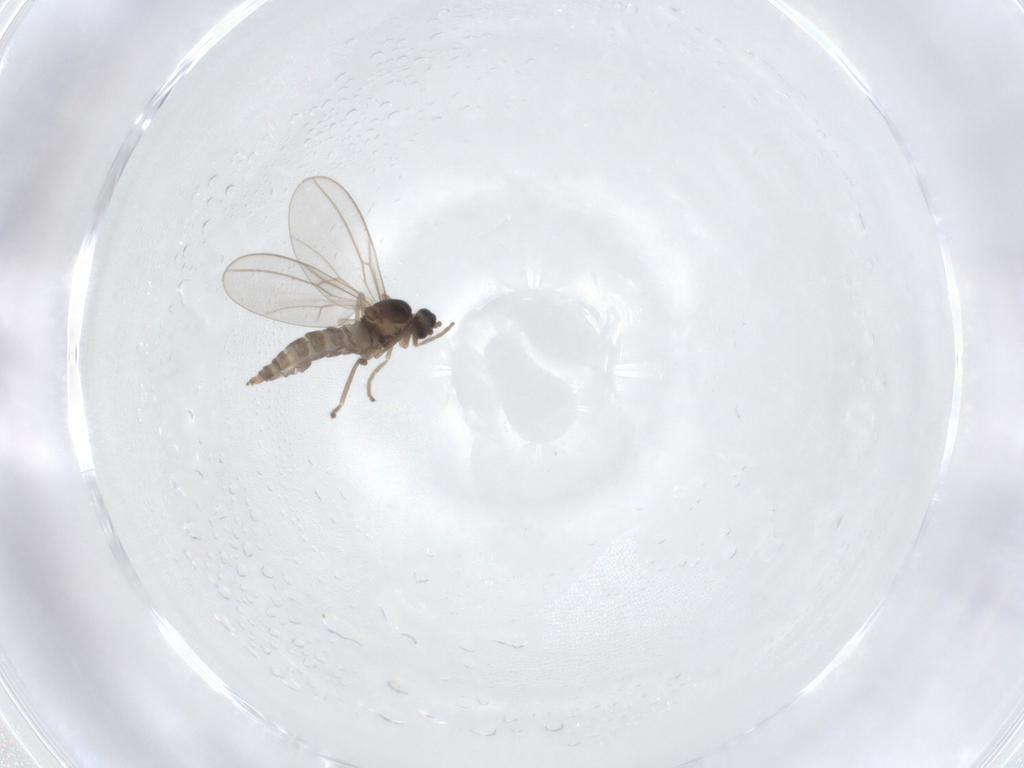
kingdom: Animalia
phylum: Arthropoda
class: Insecta
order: Diptera
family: Cecidomyiidae
